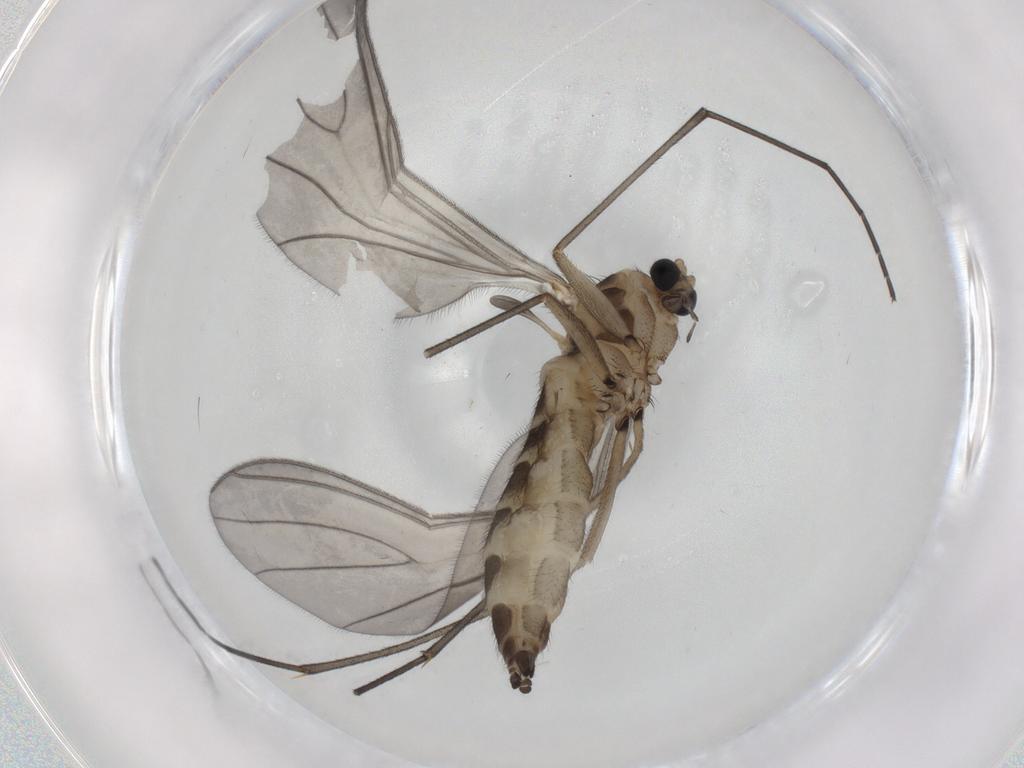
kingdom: Animalia
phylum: Arthropoda
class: Insecta
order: Diptera
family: Sciaridae
